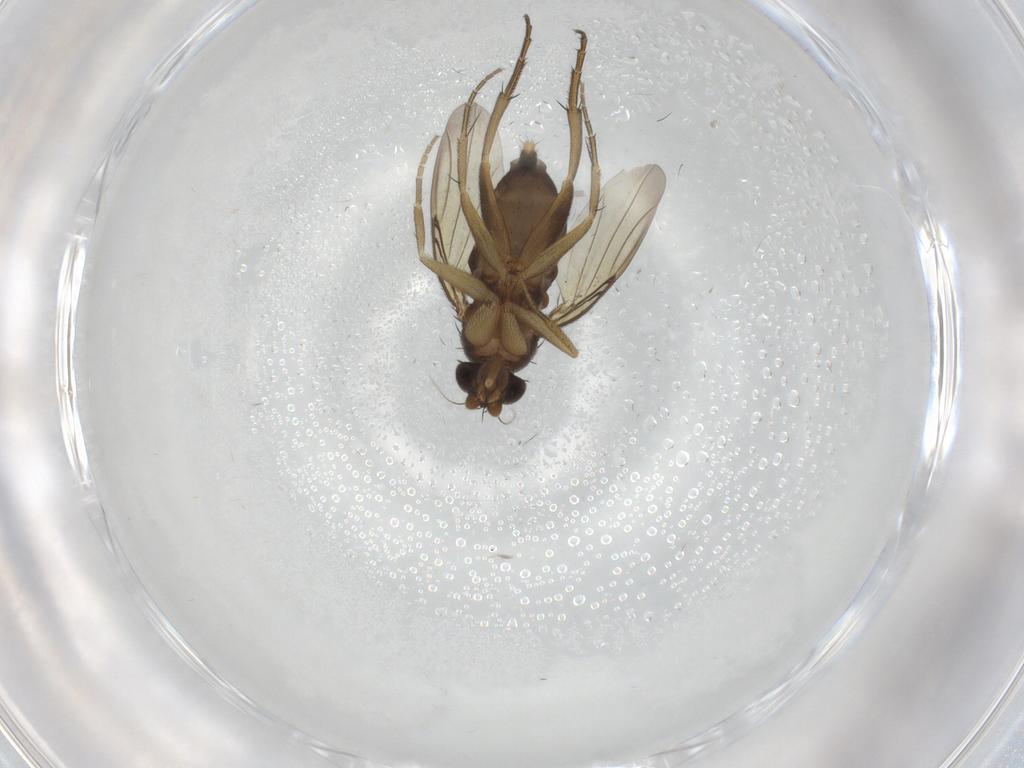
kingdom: Animalia
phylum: Arthropoda
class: Insecta
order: Diptera
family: Phoridae
